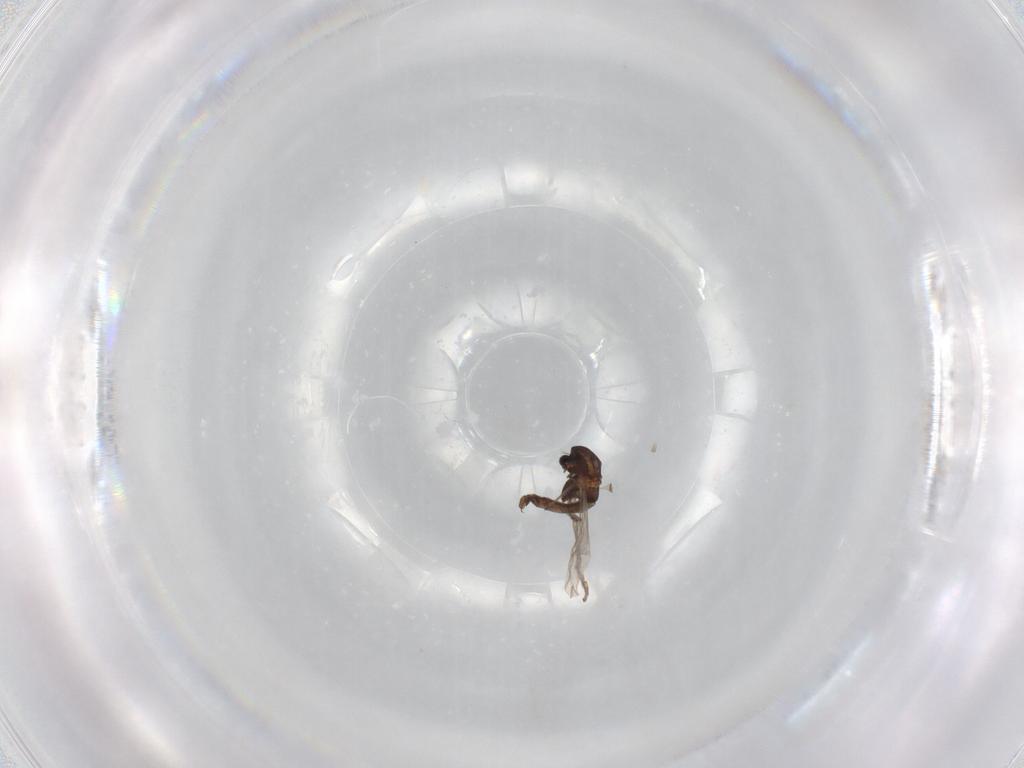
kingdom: Animalia
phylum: Arthropoda
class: Insecta
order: Diptera
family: Chironomidae
